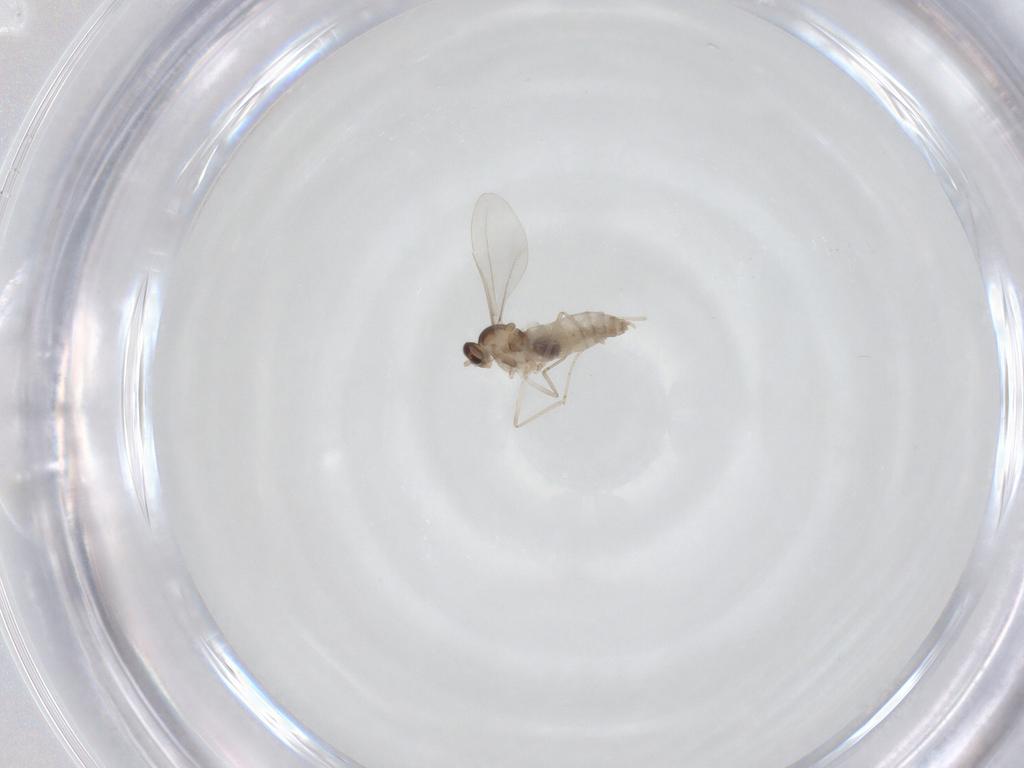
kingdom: Animalia
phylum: Arthropoda
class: Insecta
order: Diptera
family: Cecidomyiidae
